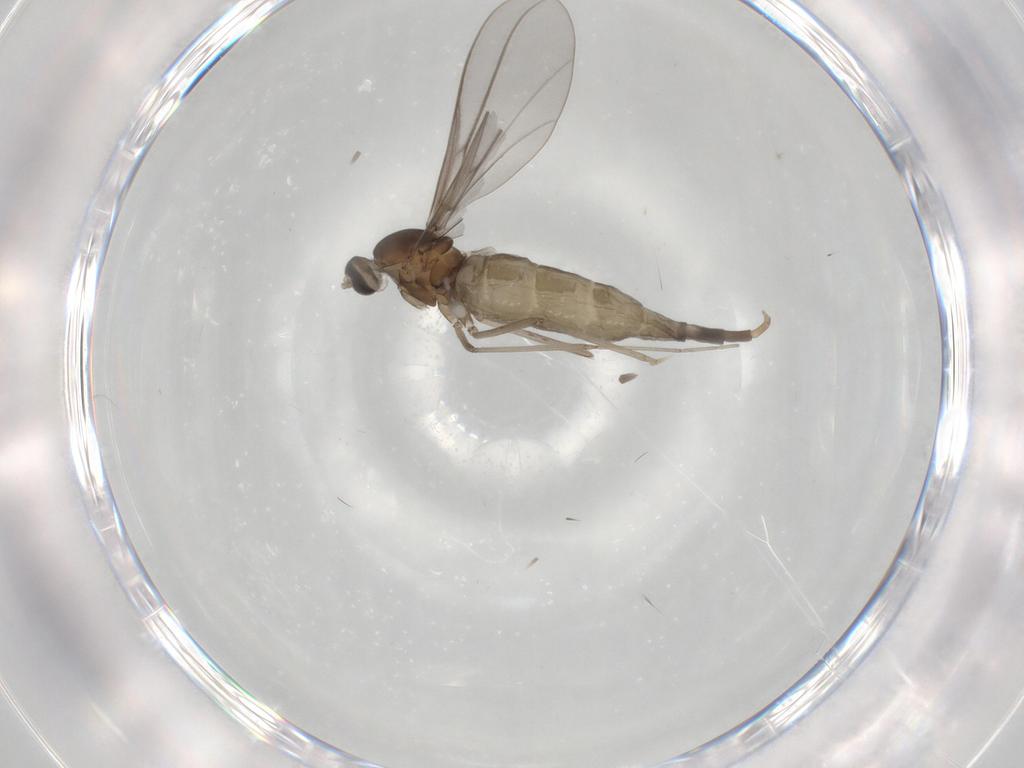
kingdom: Animalia
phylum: Arthropoda
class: Insecta
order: Diptera
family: Cecidomyiidae
